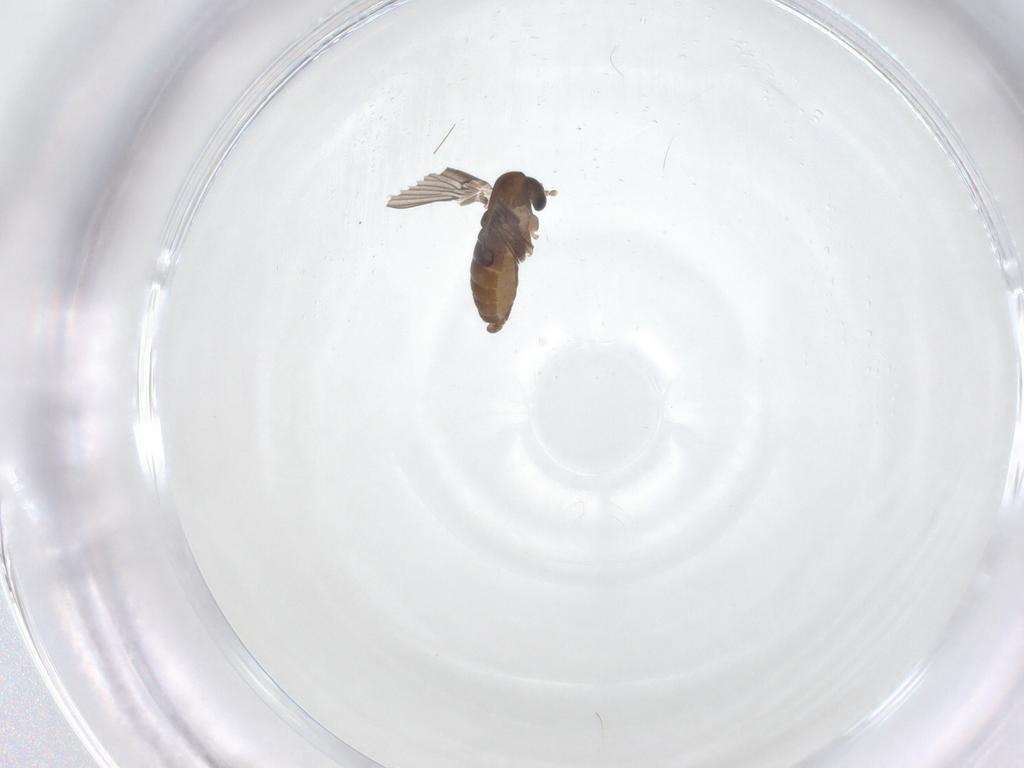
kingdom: Animalia
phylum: Arthropoda
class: Insecta
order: Diptera
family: Psychodidae
